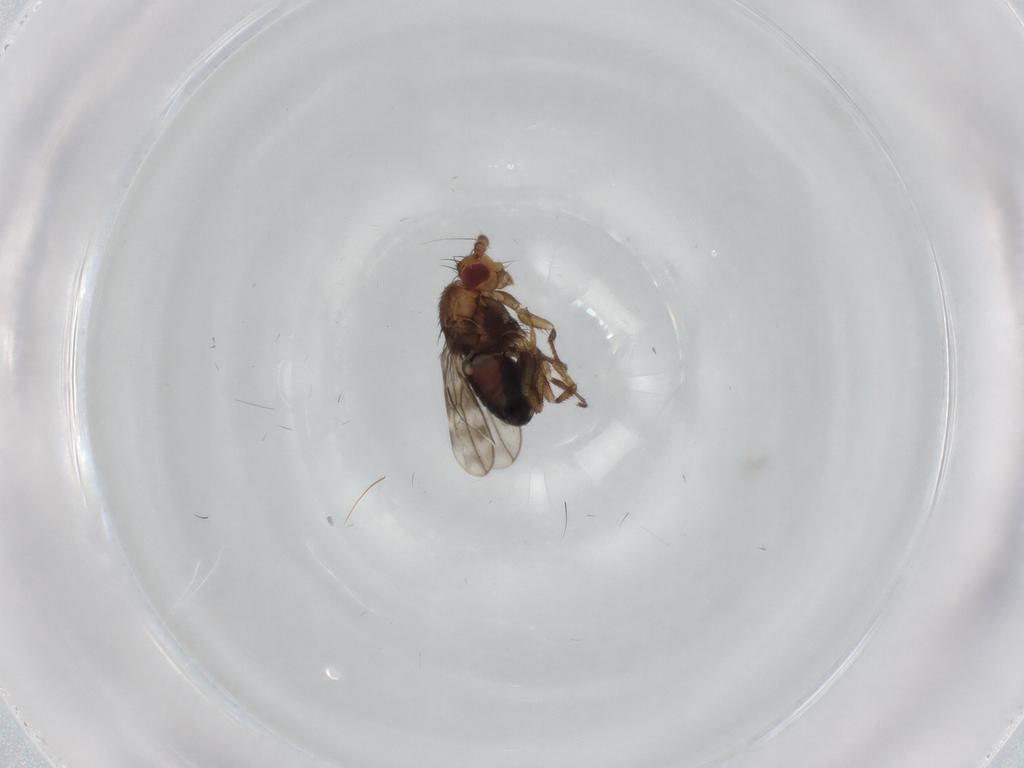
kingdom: Animalia
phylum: Arthropoda
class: Insecta
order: Diptera
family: Sphaeroceridae
